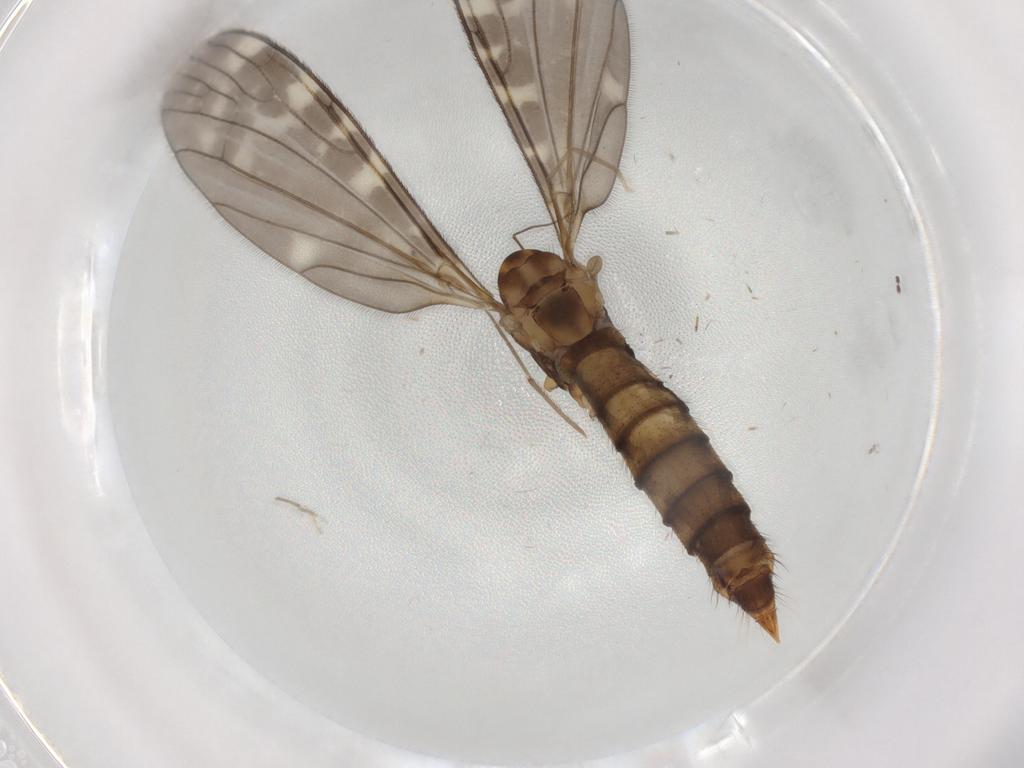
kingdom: Animalia
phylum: Arthropoda
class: Insecta
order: Diptera
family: Limoniidae
